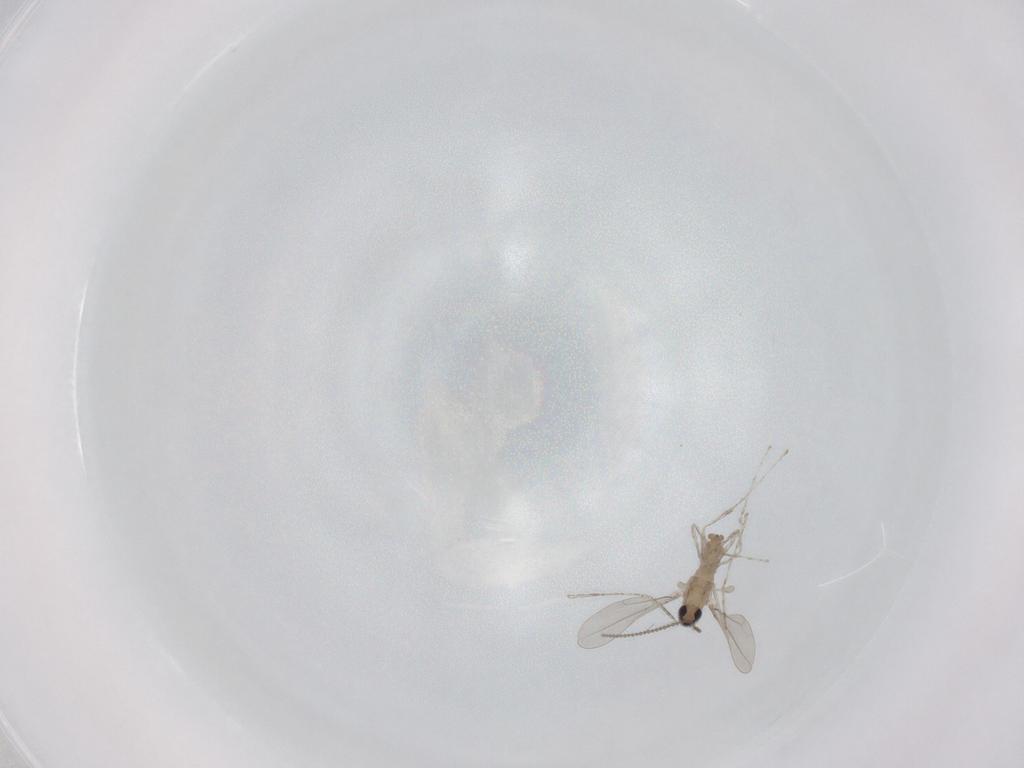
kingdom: Animalia
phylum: Arthropoda
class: Insecta
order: Diptera
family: Cecidomyiidae
